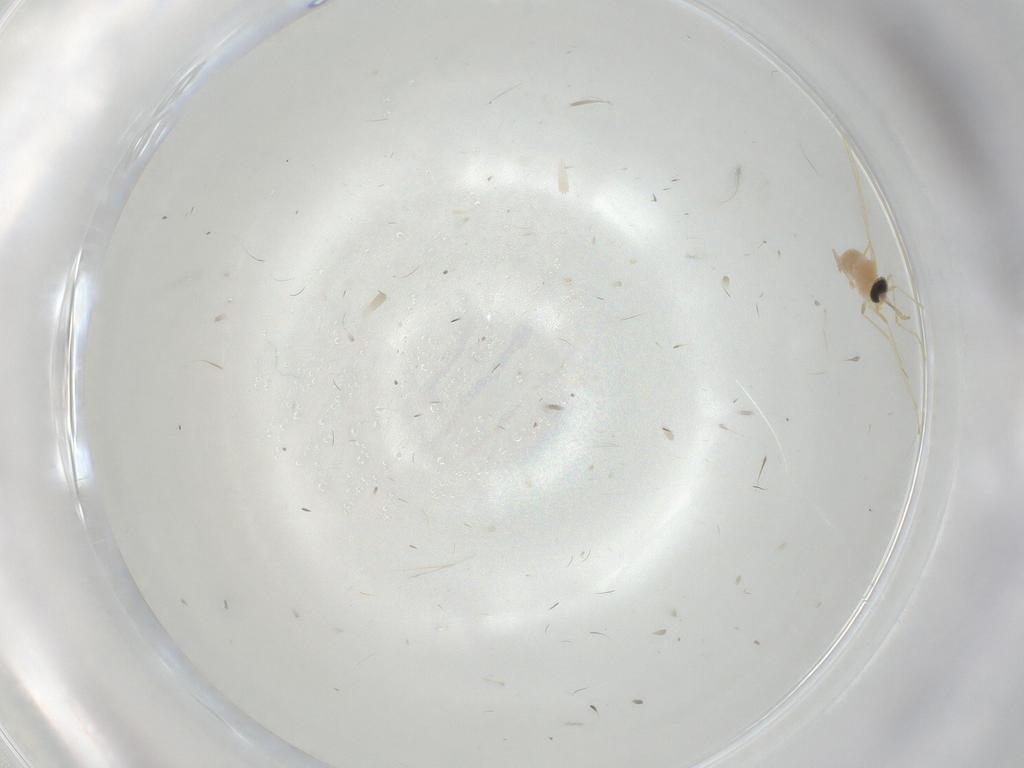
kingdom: Animalia
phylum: Arthropoda
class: Insecta
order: Diptera
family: Cecidomyiidae
